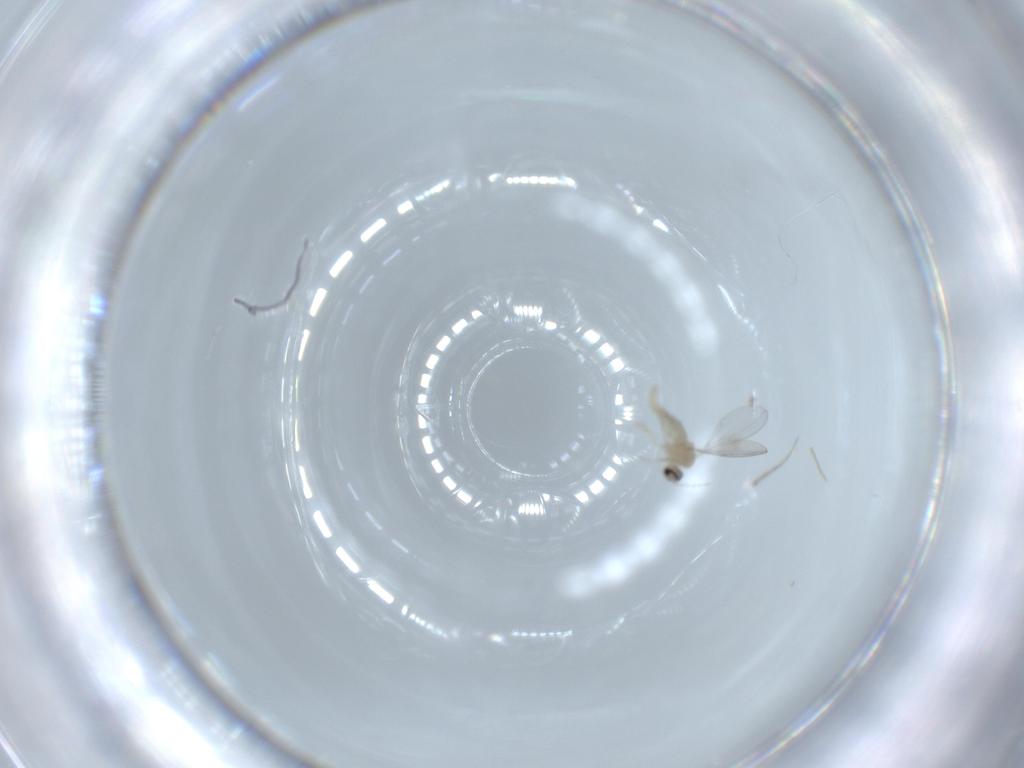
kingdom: Animalia
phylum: Arthropoda
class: Insecta
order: Diptera
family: Cecidomyiidae
